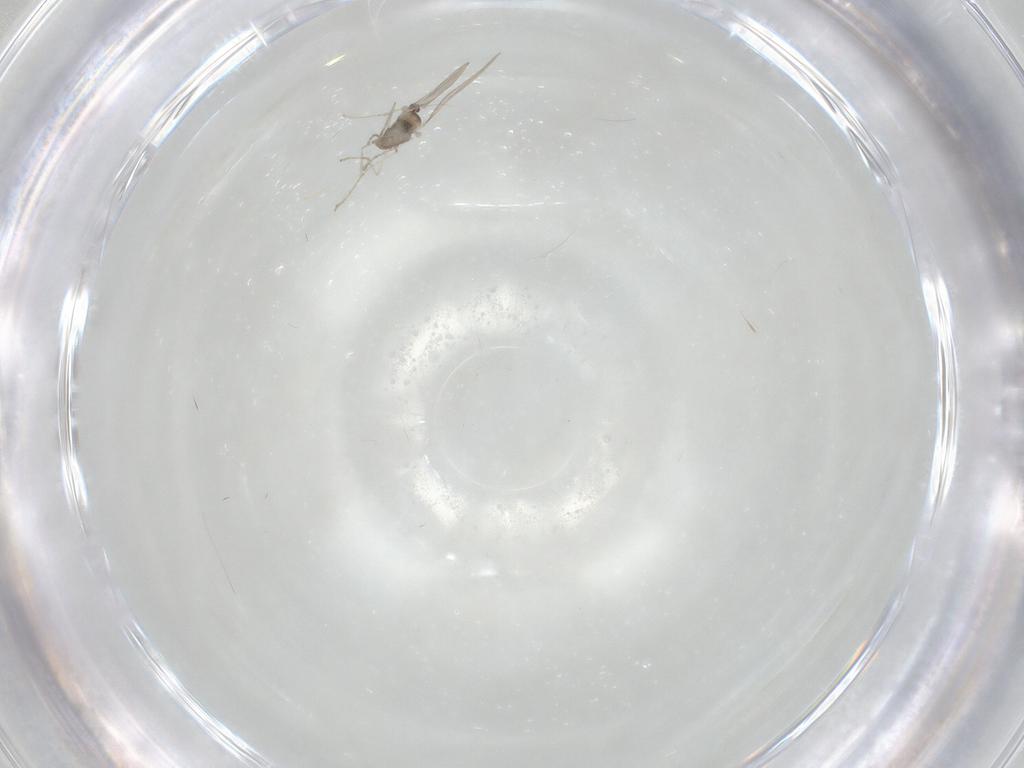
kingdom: Animalia
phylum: Arthropoda
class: Insecta
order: Diptera
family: Cecidomyiidae
